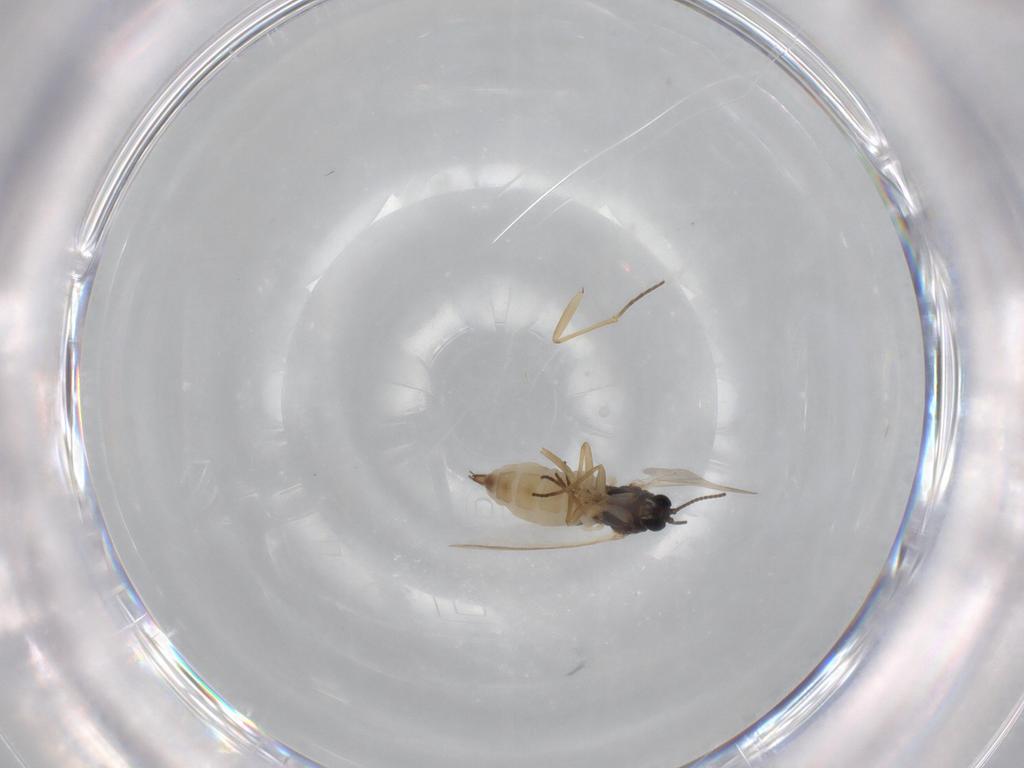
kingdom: Animalia
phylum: Arthropoda
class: Insecta
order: Diptera
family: Sciaridae
